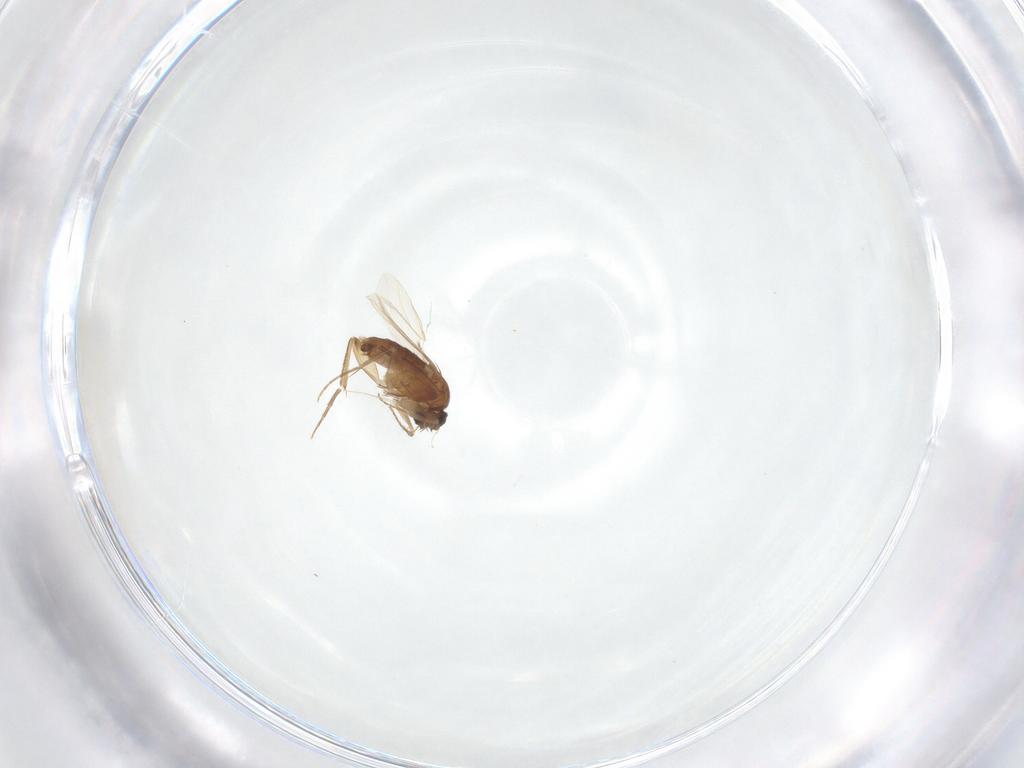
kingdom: Animalia
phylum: Arthropoda
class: Insecta
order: Diptera
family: Phoridae
